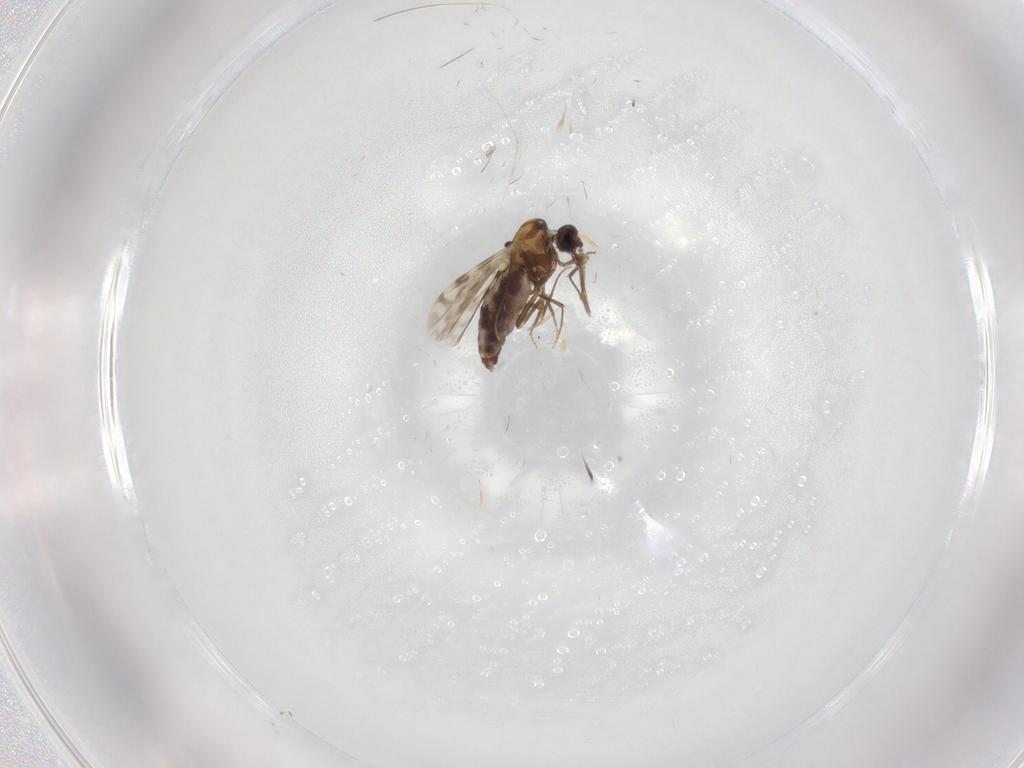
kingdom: Animalia
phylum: Arthropoda
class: Insecta
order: Diptera
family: Ceratopogonidae
